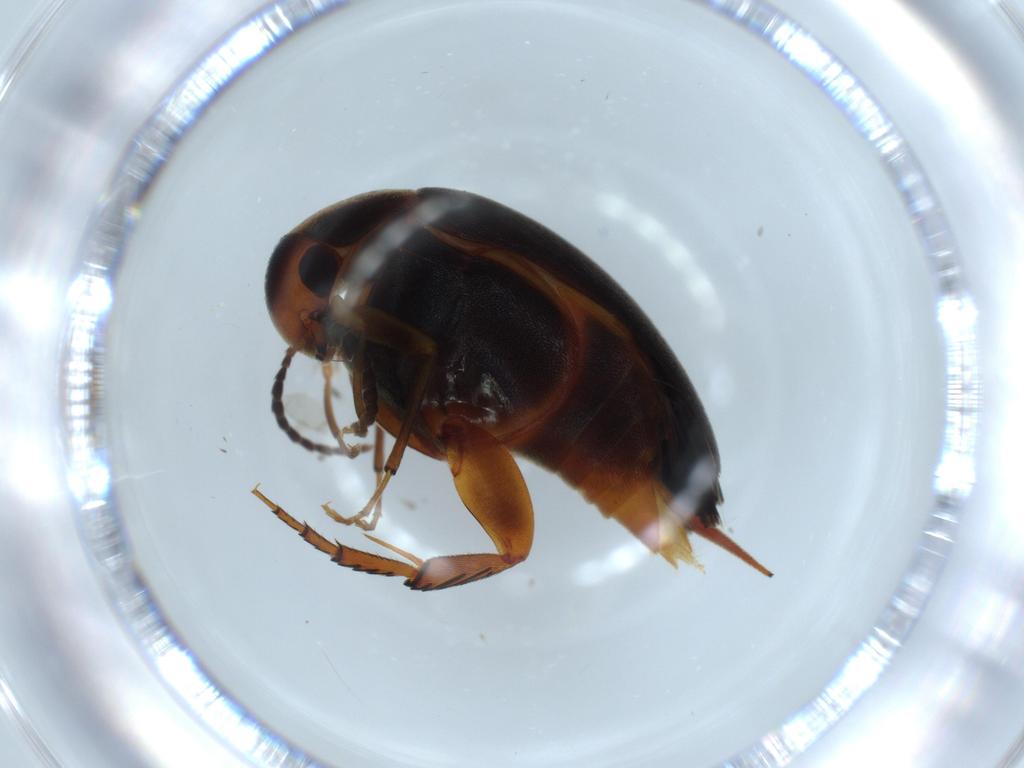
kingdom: Animalia
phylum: Arthropoda
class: Insecta
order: Coleoptera
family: Bostrichidae
